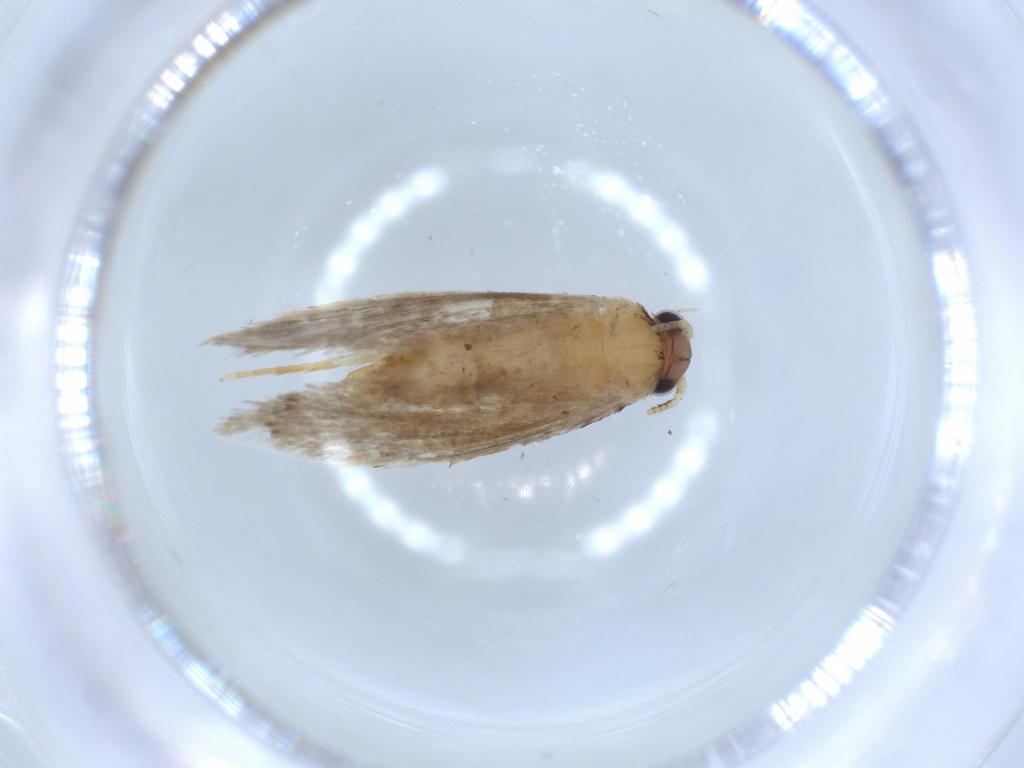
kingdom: Animalia
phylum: Arthropoda
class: Insecta
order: Lepidoptera
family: Tineidae
